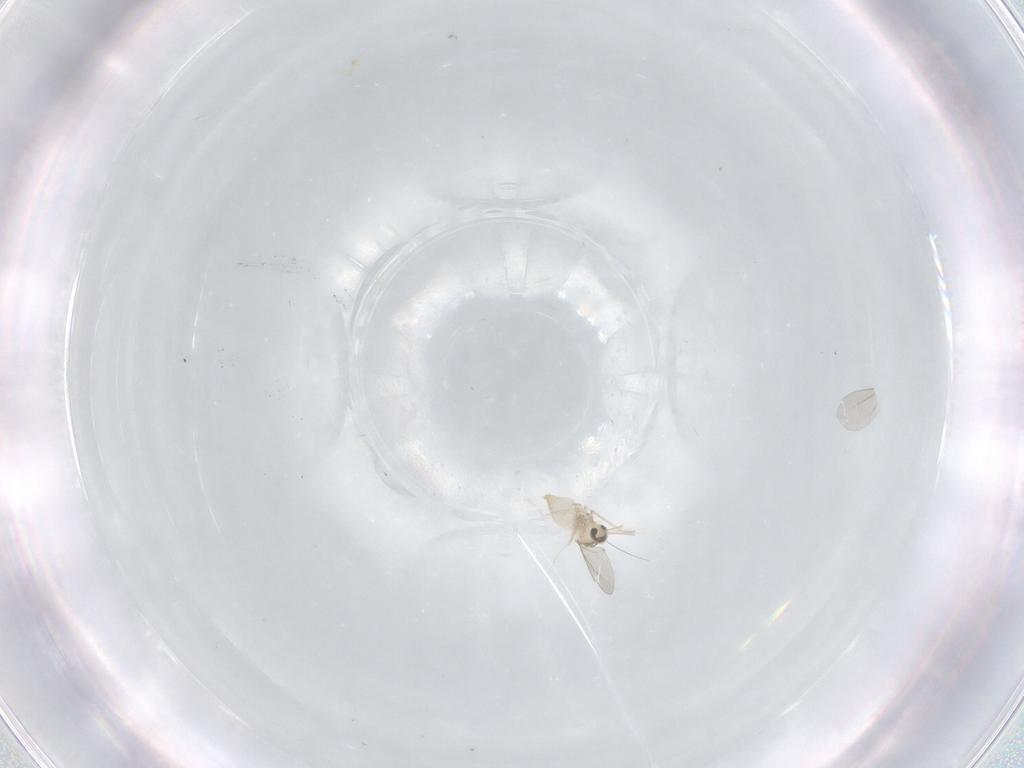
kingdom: Animalia
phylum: Arthropoda
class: Insecta
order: Diptera
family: Cecidomyiidae
